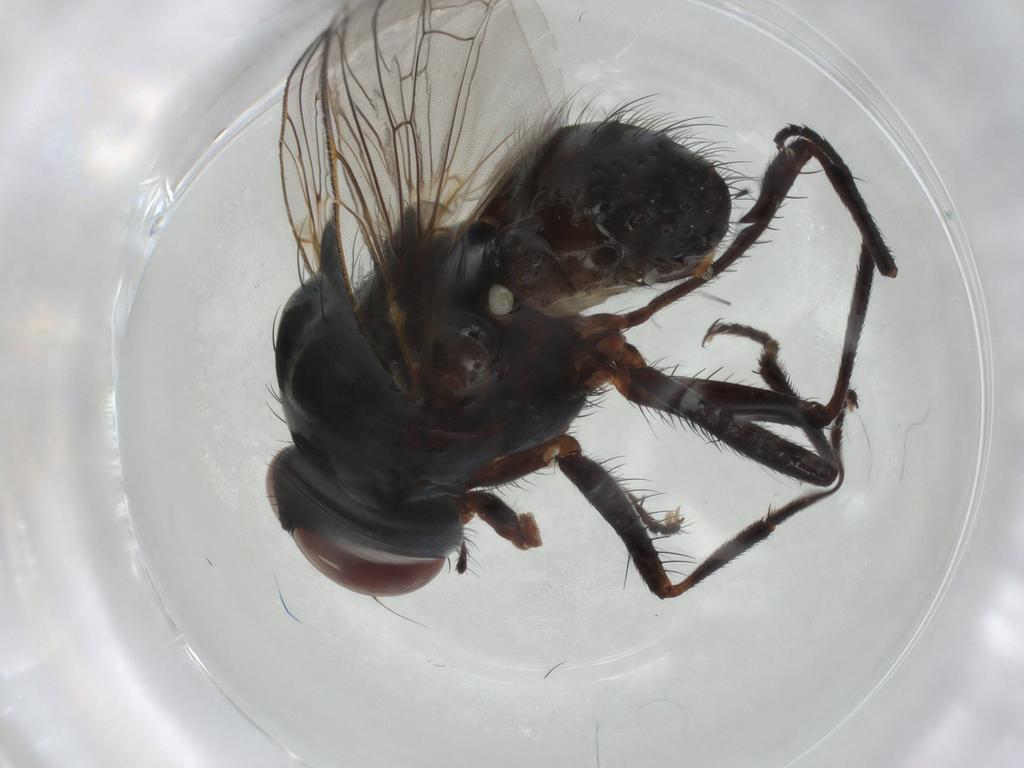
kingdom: Animalia
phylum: Arthropoda
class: Insecta
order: Diptera
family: Anthomyiidae
